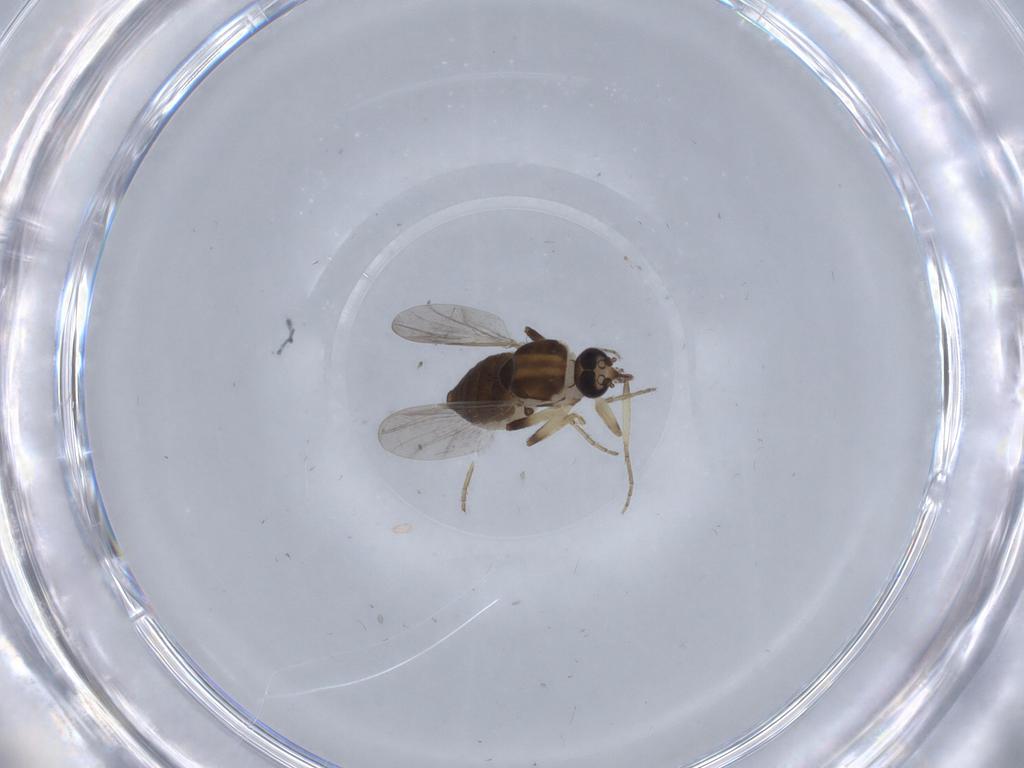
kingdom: Animalia
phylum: Arthropoda
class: Insecta
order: Diptera
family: Ceratopogonidae
